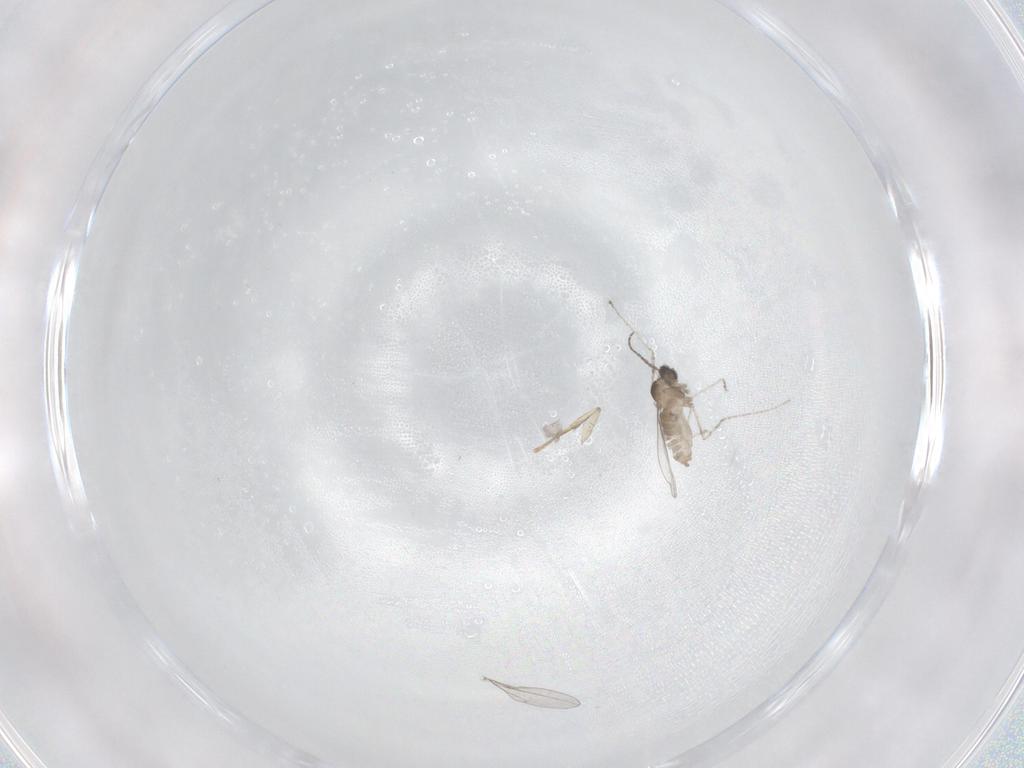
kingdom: Animalia
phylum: Arthropoda
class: Insecta
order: Diptera
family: Cecidomyiidae
